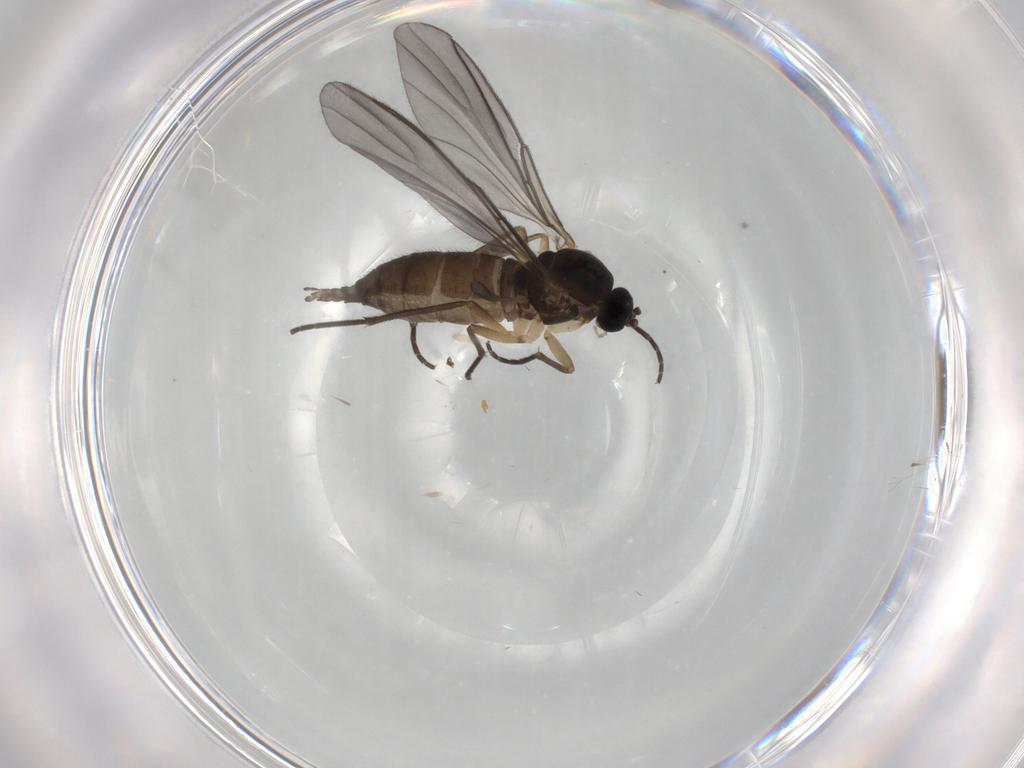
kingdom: Animalia
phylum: Arthropoda
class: Insecta
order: Diptera
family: Sciaridae
